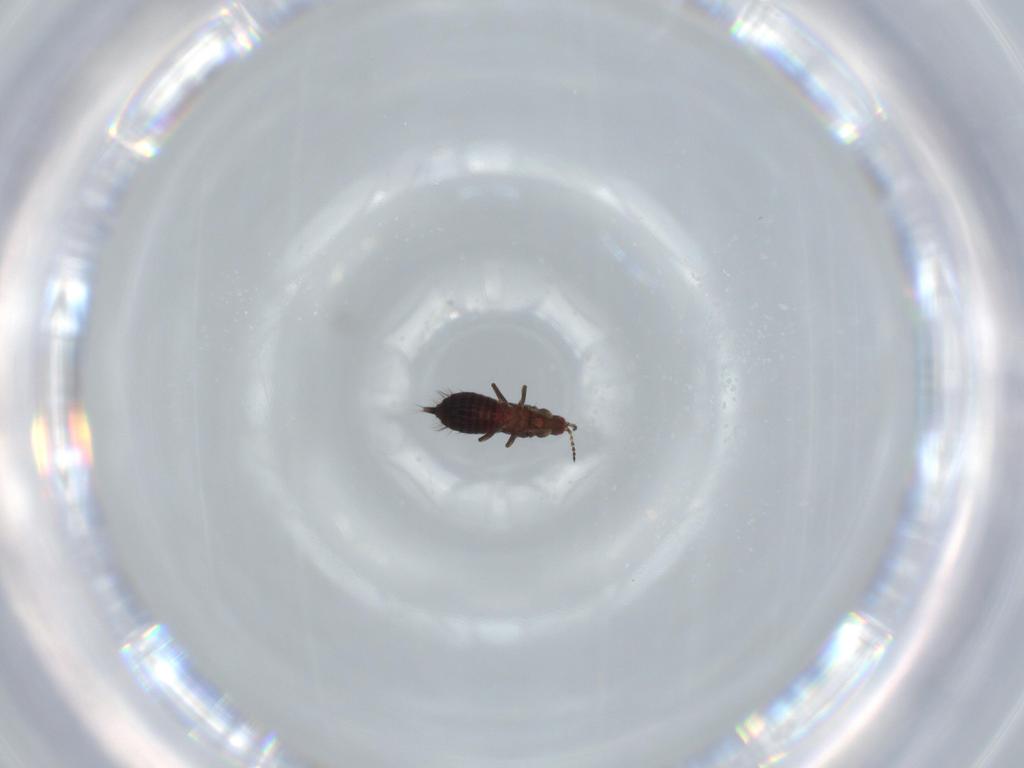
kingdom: Animalia
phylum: Arthropoda
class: Insecta
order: Thysanoptera
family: Phlaeothripidae
